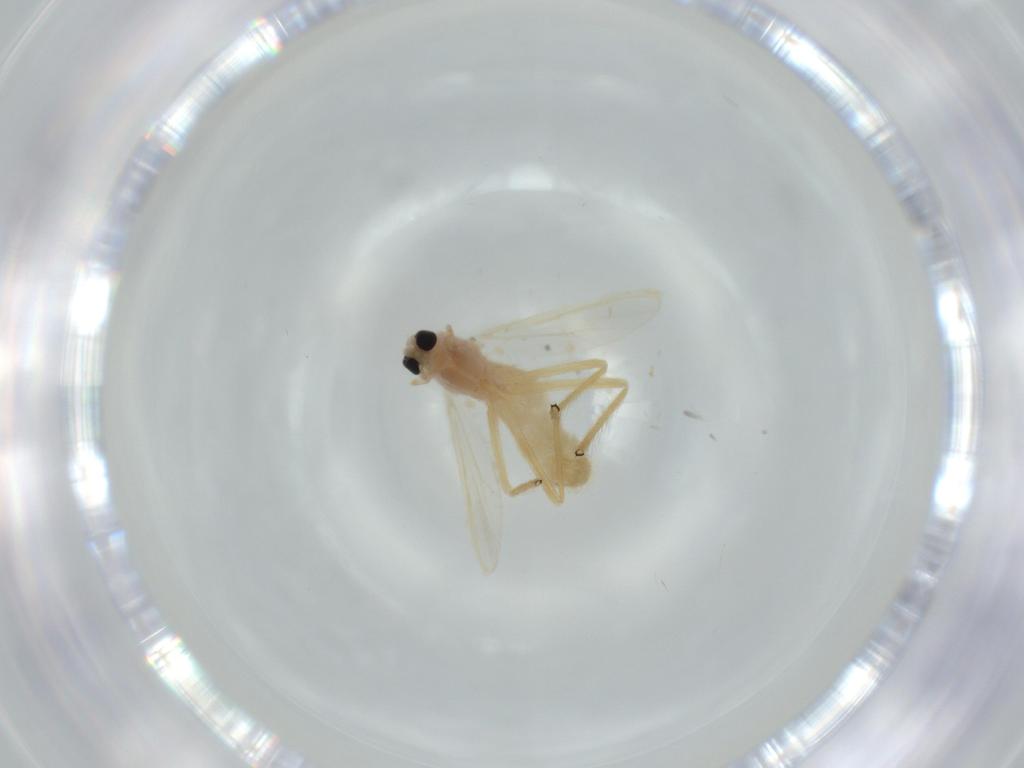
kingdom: Animalia
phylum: Arthropoda
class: Insecta
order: Diptera
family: Chironomidae
